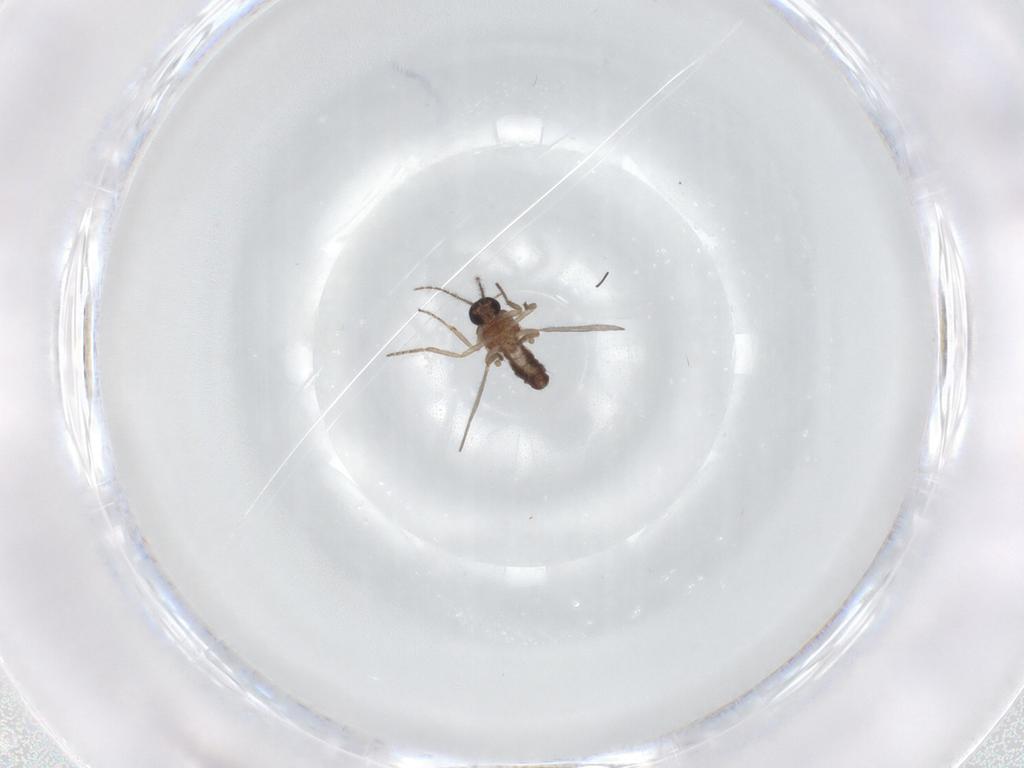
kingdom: Animalia
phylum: Arthropoda
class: Insecta
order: Diptera
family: Ceratopogonidae
